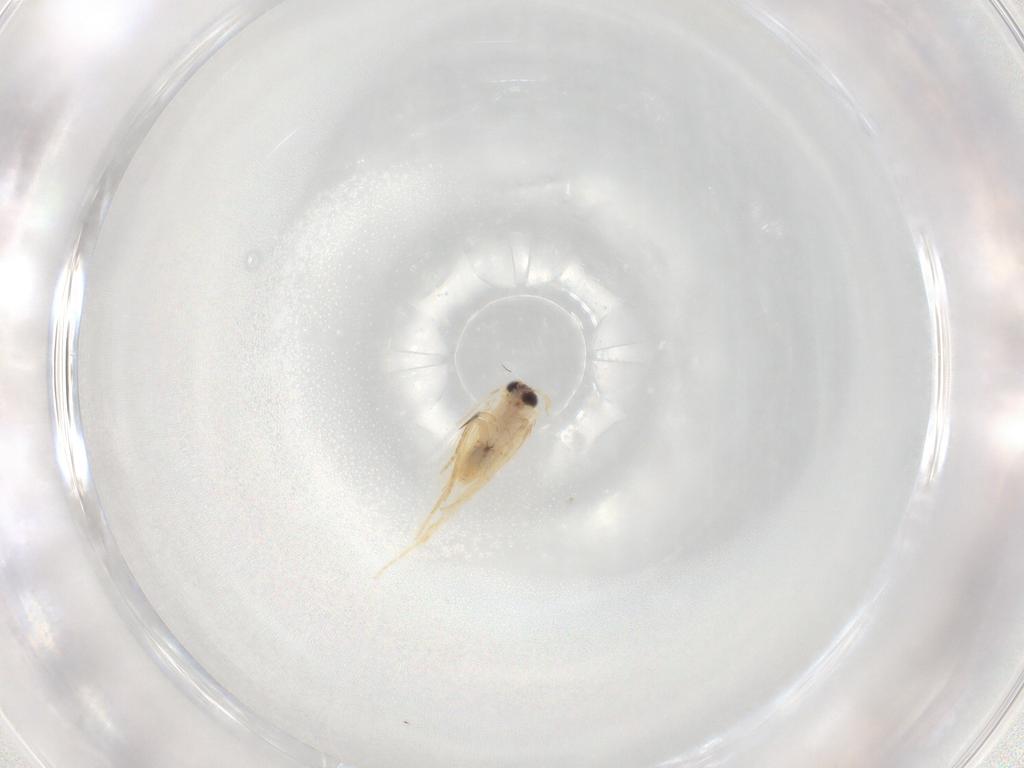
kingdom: Animalia
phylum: Arthropoda
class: Insecta
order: Lepidoptera
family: Nepticulidae
